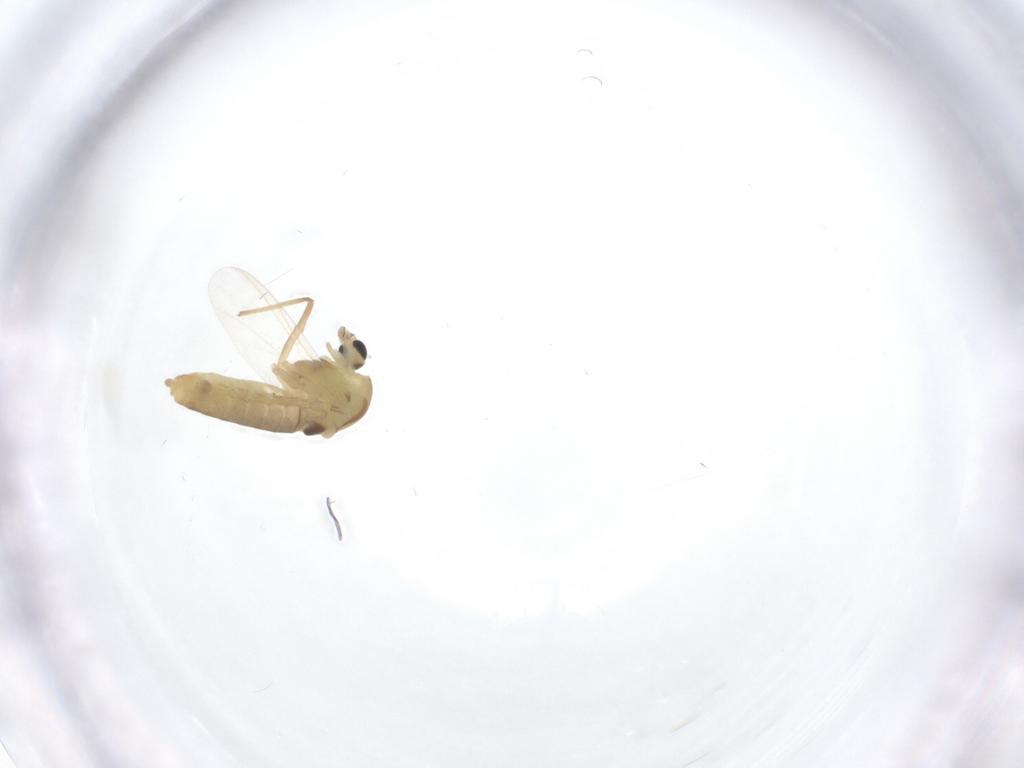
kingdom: Animalia
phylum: Arthropoda
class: Insecta
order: Diptera
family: Chironomidae
